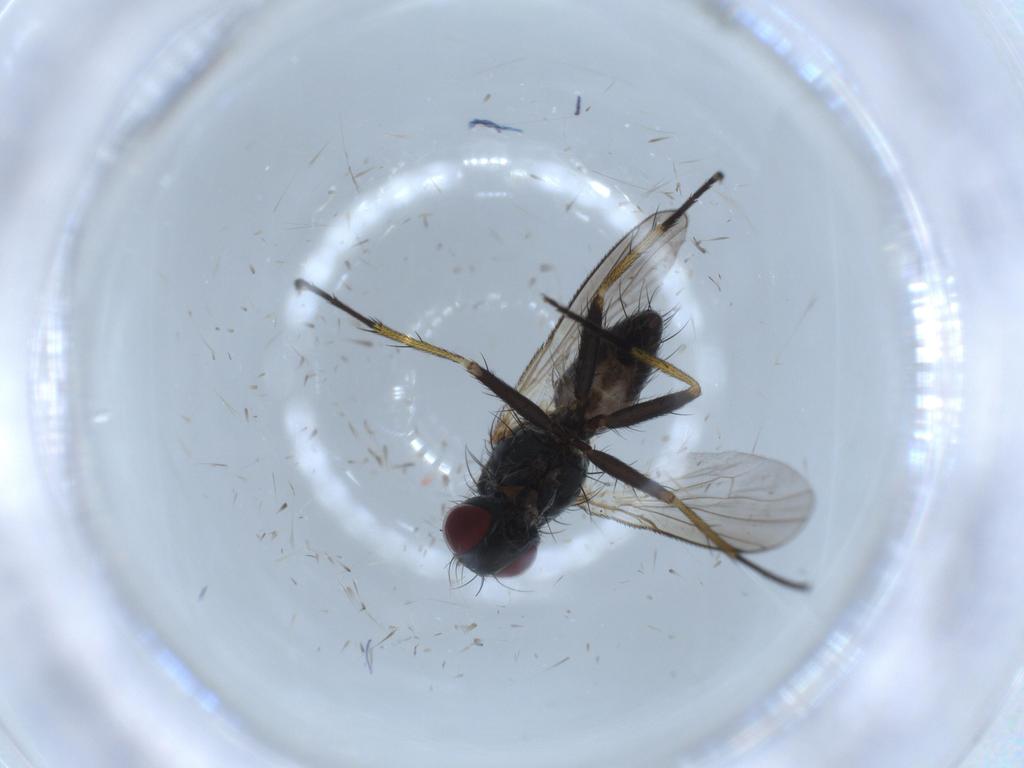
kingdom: Animalia
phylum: Arthropoda
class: Insecta
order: Diptera
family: Muscidae
